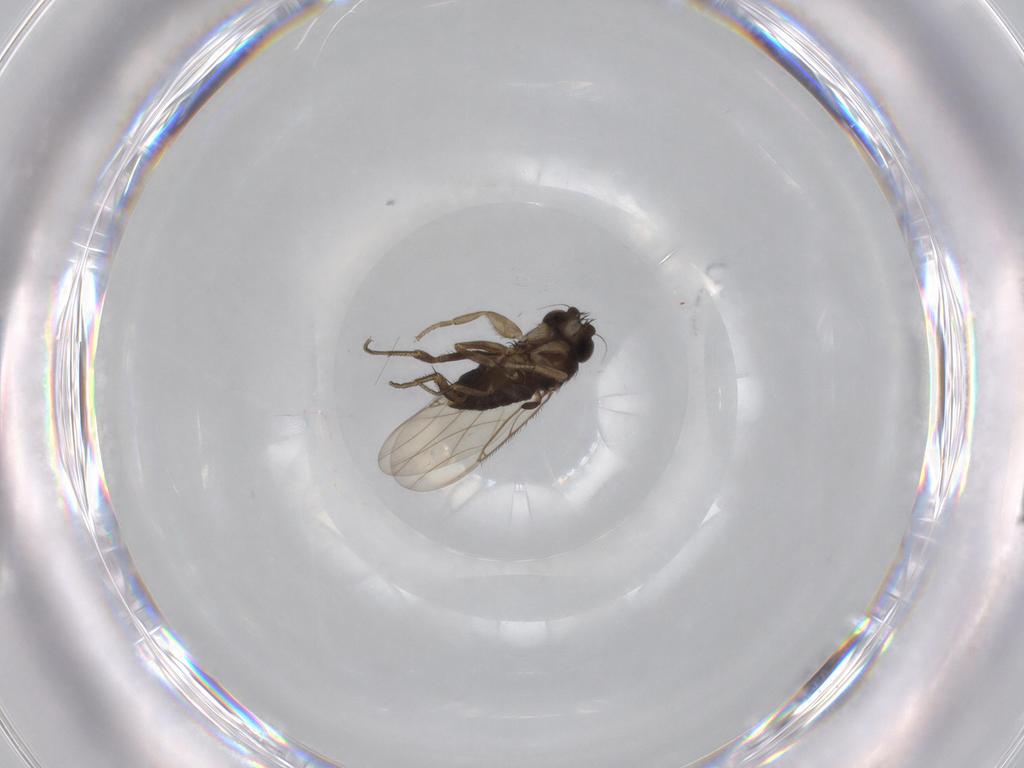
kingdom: Animalia
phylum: Arthropoda
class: Insecta
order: Diptera
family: Phoridae
